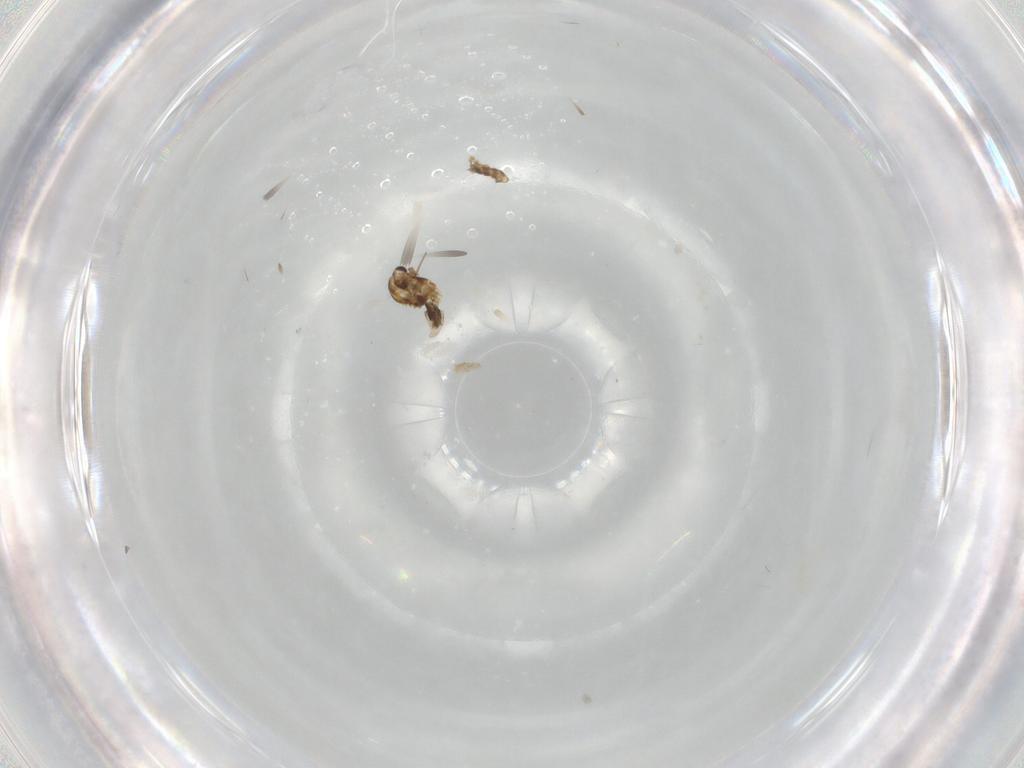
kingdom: Animalia
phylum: Arthropoda
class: Insecta
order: Diptera
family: Chironomidae
